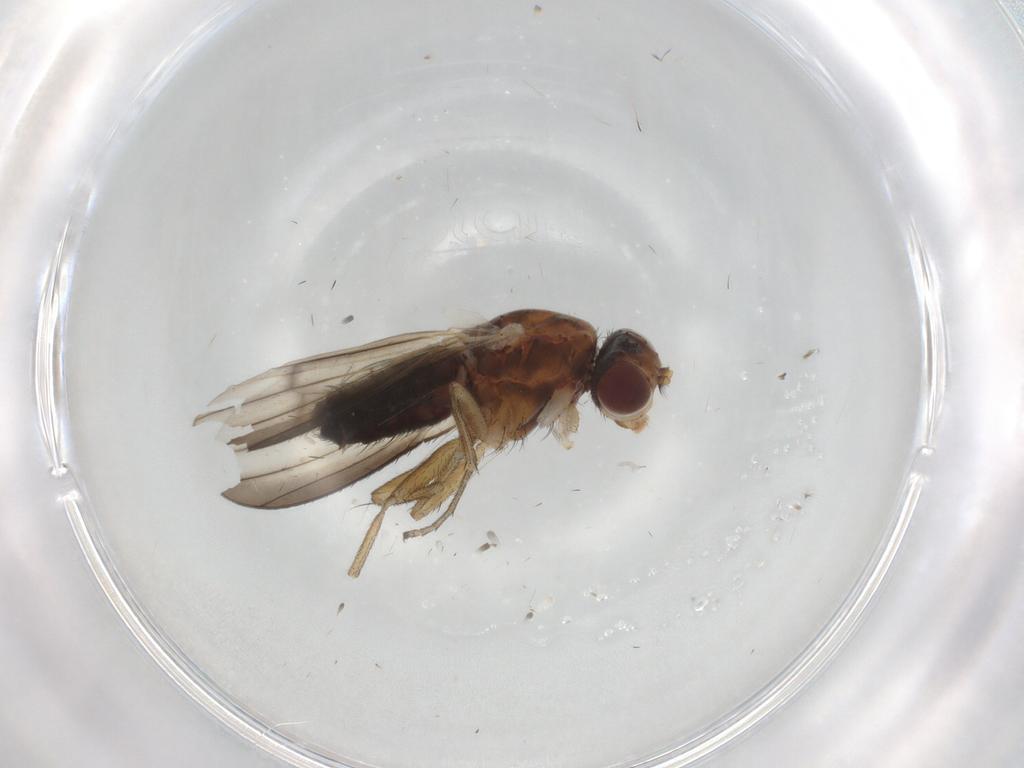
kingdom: Animalia
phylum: Arthropoda
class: Insecta
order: Diptera
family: Heleomyzidae
